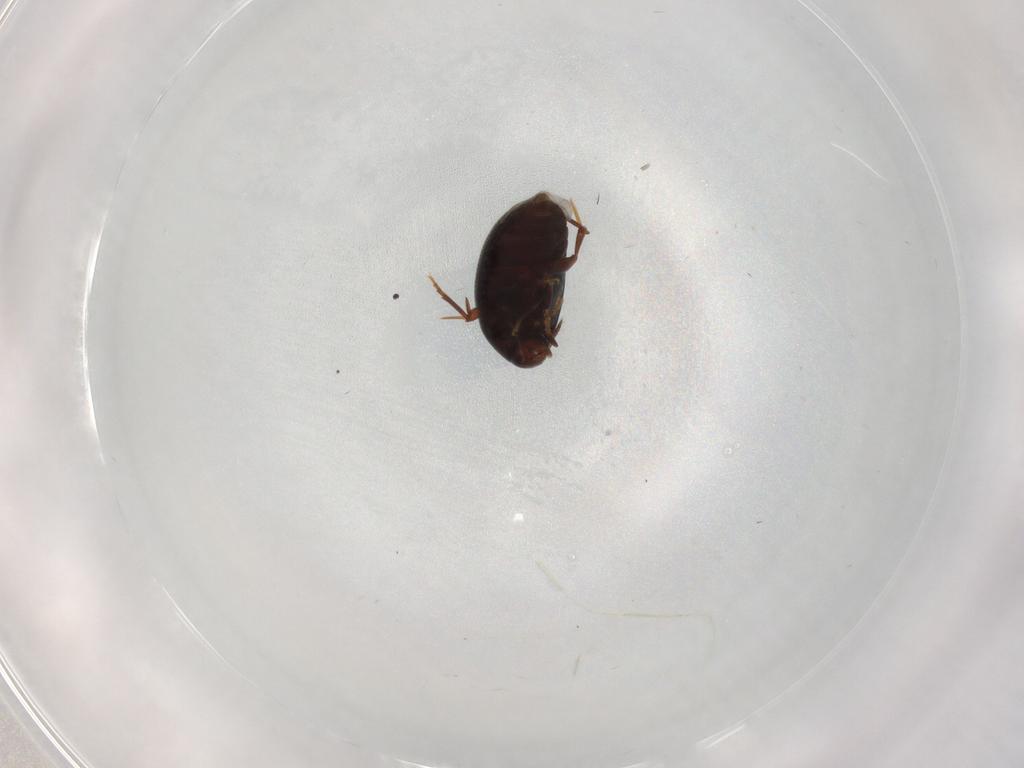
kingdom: Animalia
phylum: Arthropoda
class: Insecta
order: Coleoptera
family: Melandryidae
